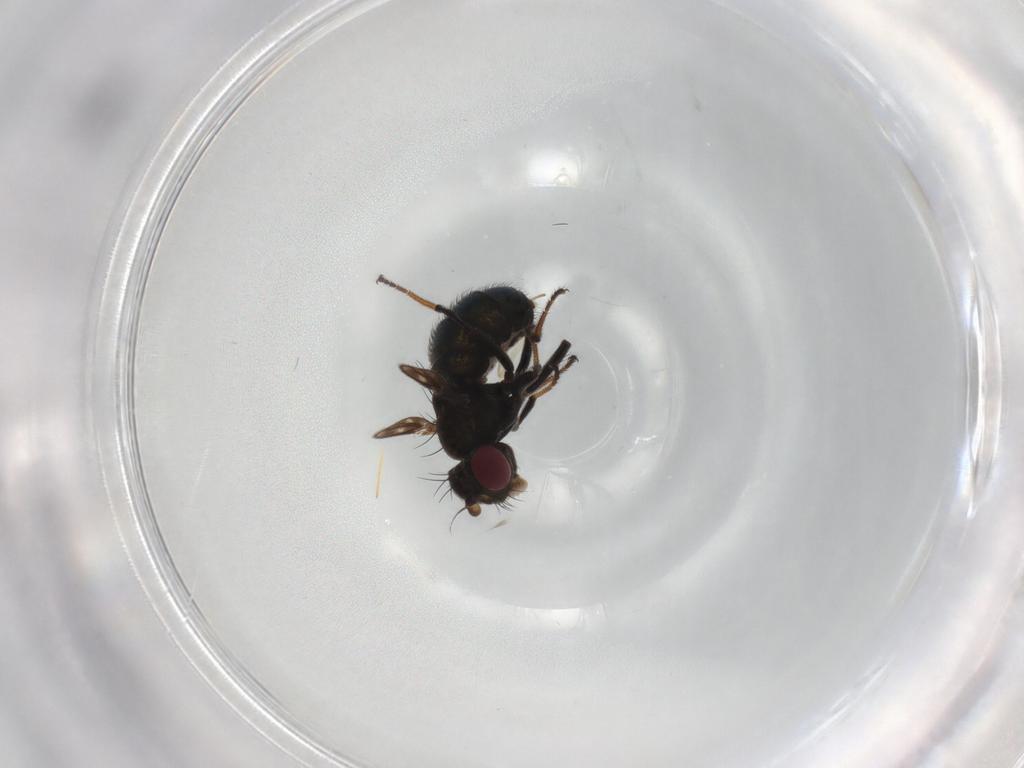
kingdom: Animalia
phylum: Arthropoda
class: Insecta
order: Diptera
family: Ephydridae
